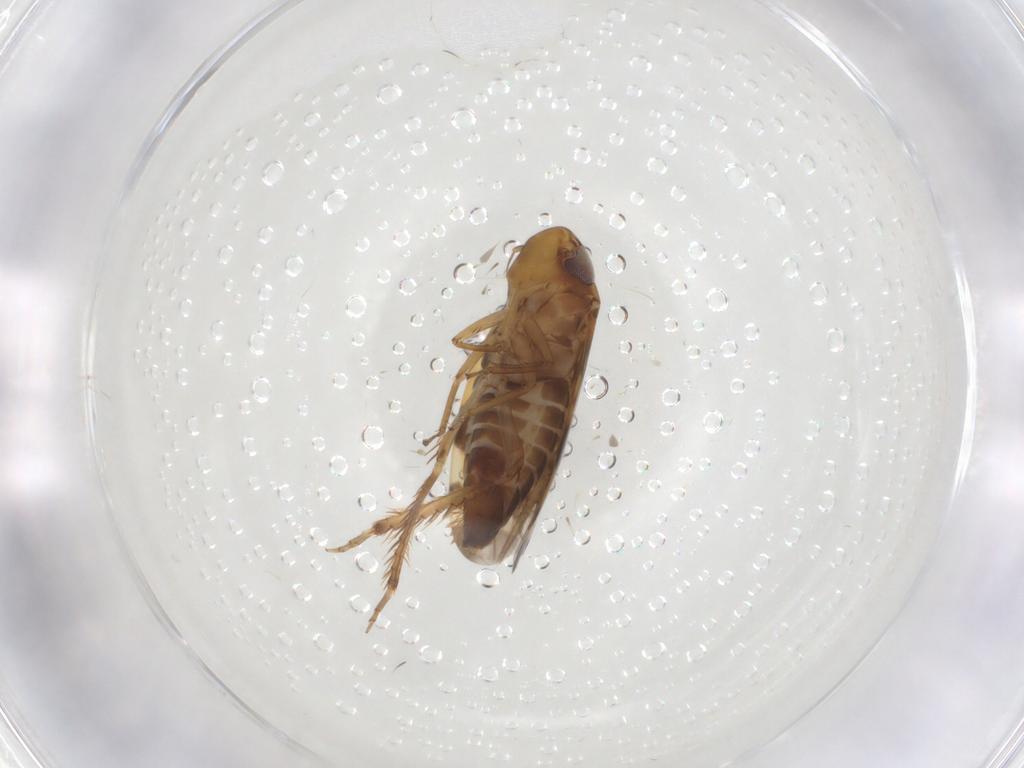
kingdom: Animalia
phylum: Arthropoda
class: Insecta
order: Hemiptera
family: Cicadellidae
